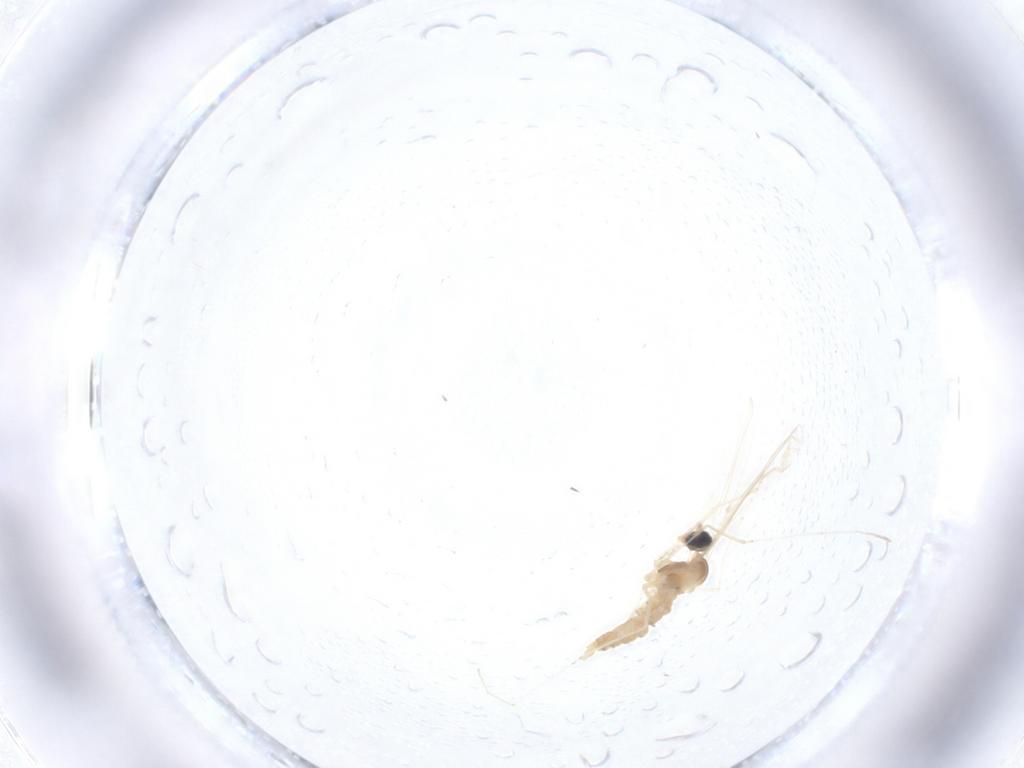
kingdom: Animalia
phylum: Arthropoda
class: Insecta
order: Diptera
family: Cecidomyiidae
